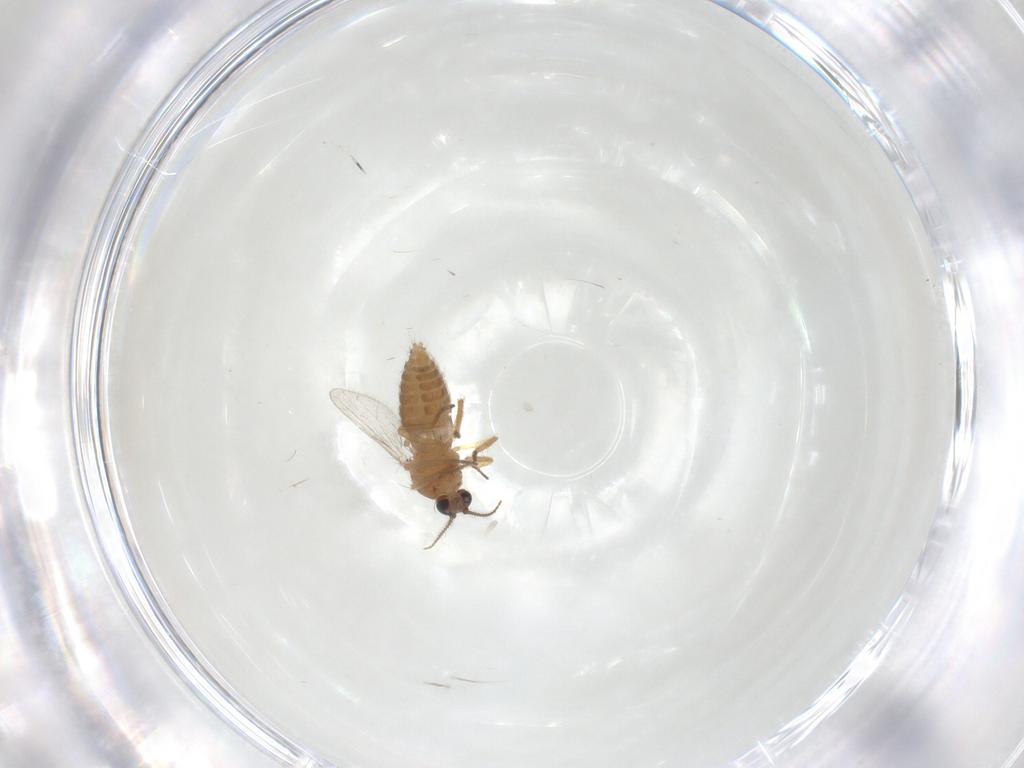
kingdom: Animalia
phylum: Arthropoda
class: Insecta
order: Diptera
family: Ceratopogonidae
